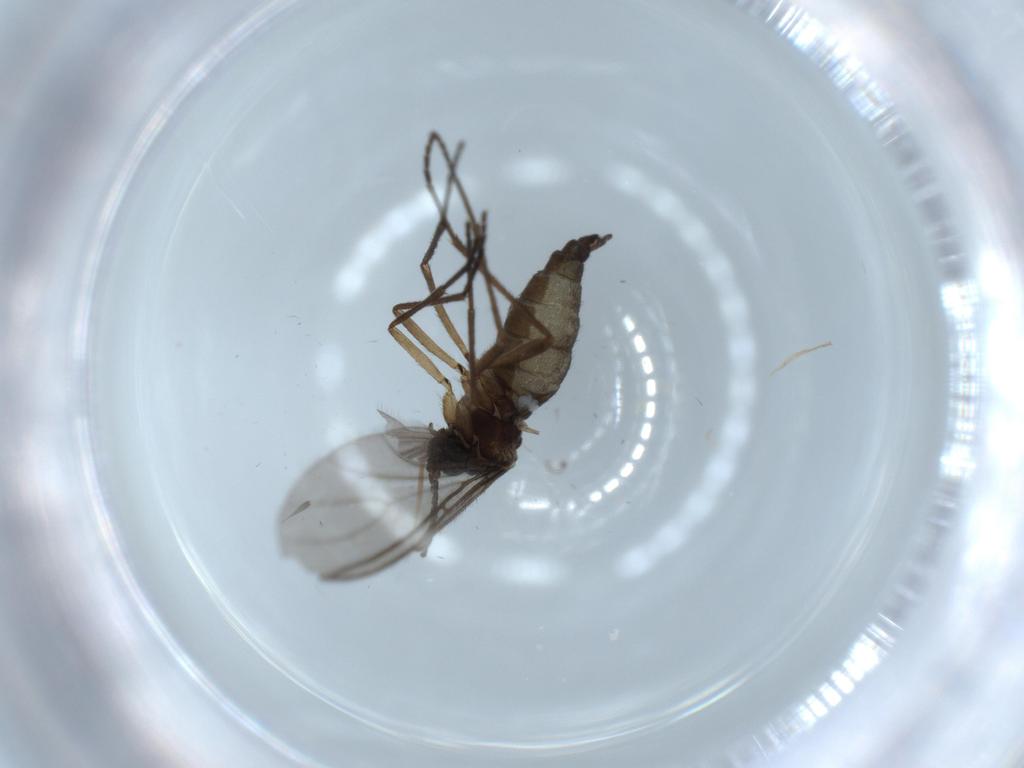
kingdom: Animalia
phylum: Arthropoda
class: Insecta
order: Diptera
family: Sciaridae
